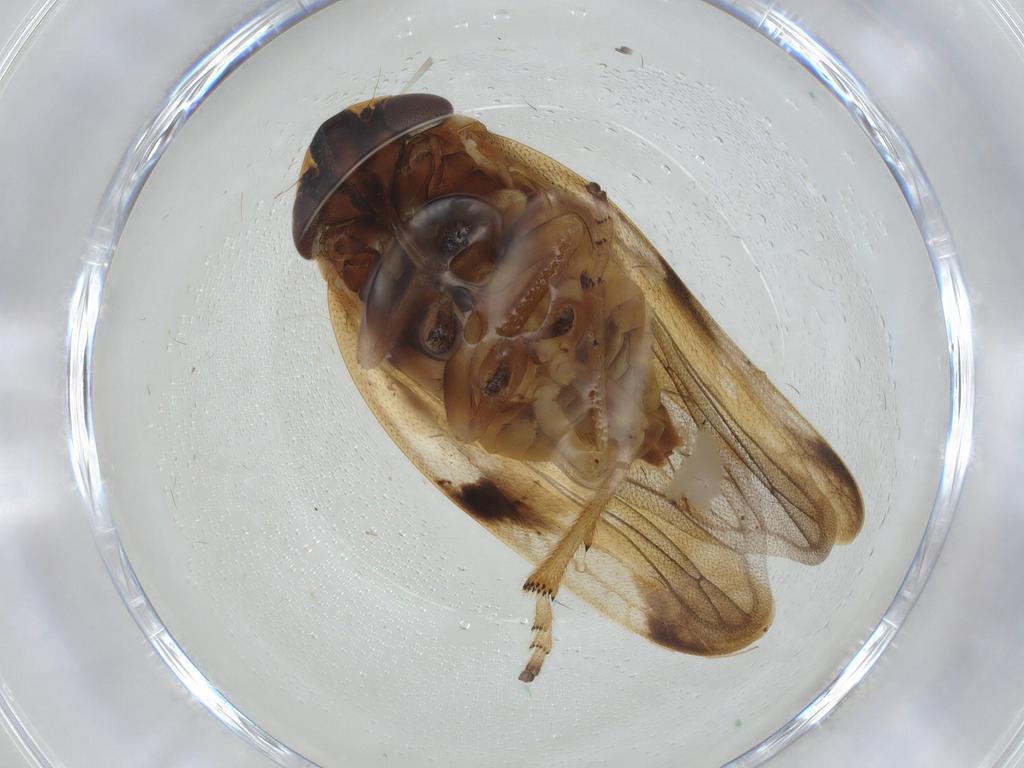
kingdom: Animalia
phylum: Arthropoda
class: Insecta
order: Hemiptera
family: Aphrophoridae
